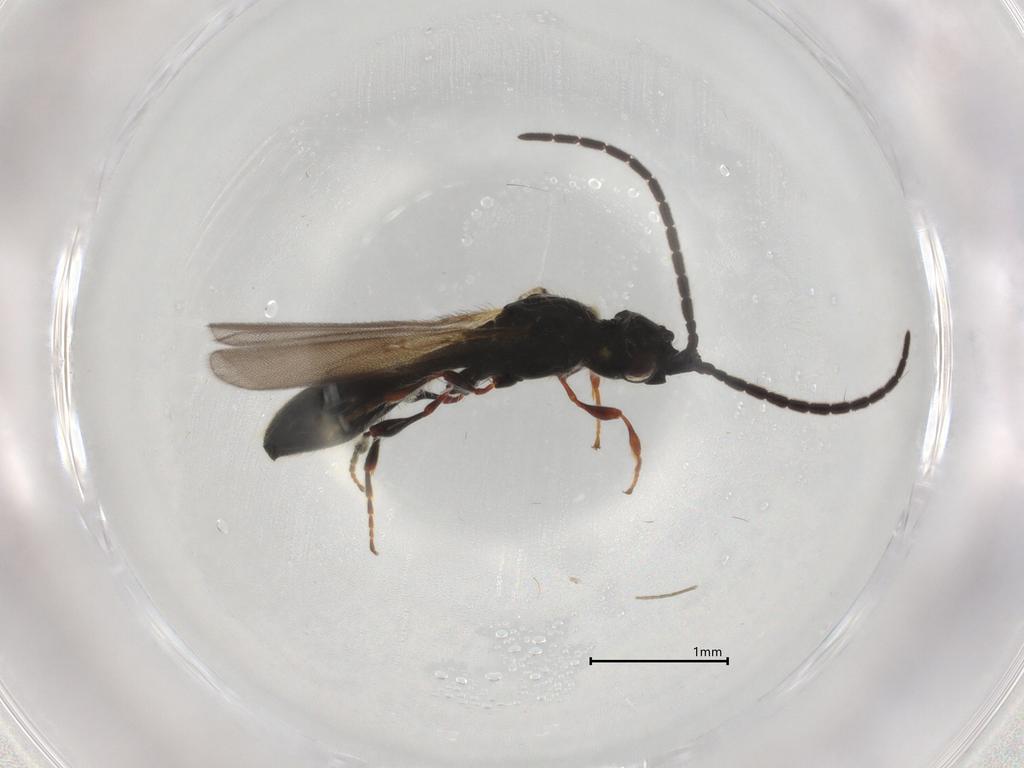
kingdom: Animalia
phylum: Arthropoda
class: Insecta
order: Hymenoptera
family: Diapriidae
